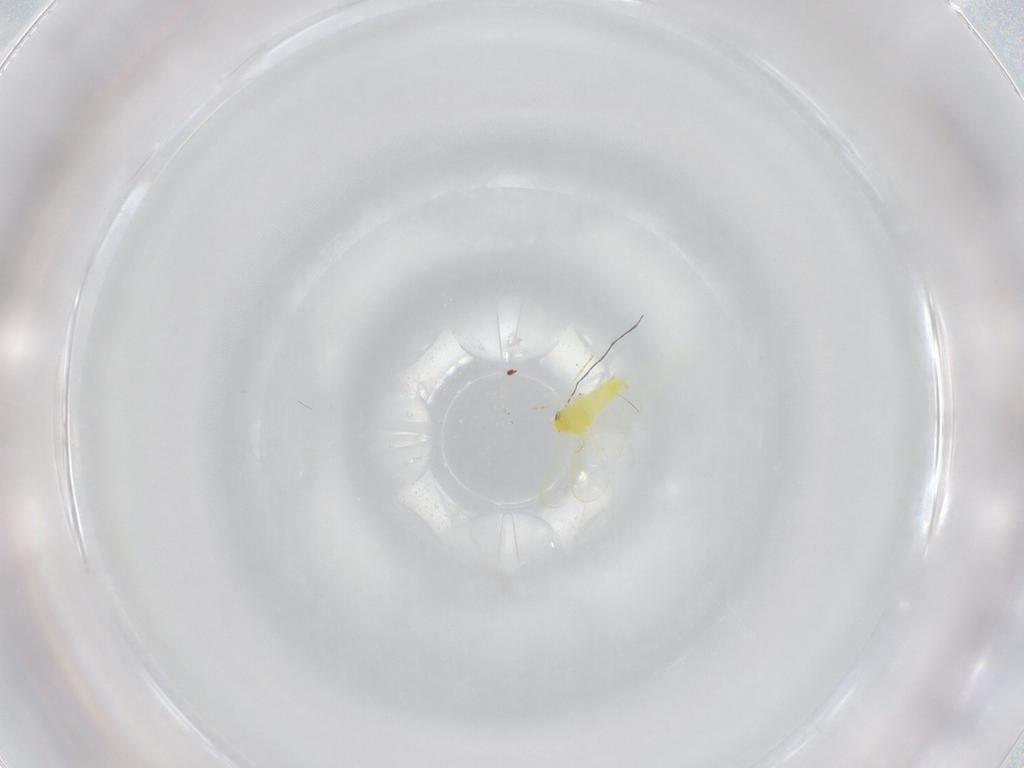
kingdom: Animalia
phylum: Arthropoda
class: Insecta
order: Hemiptera
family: Aleyrodidae
